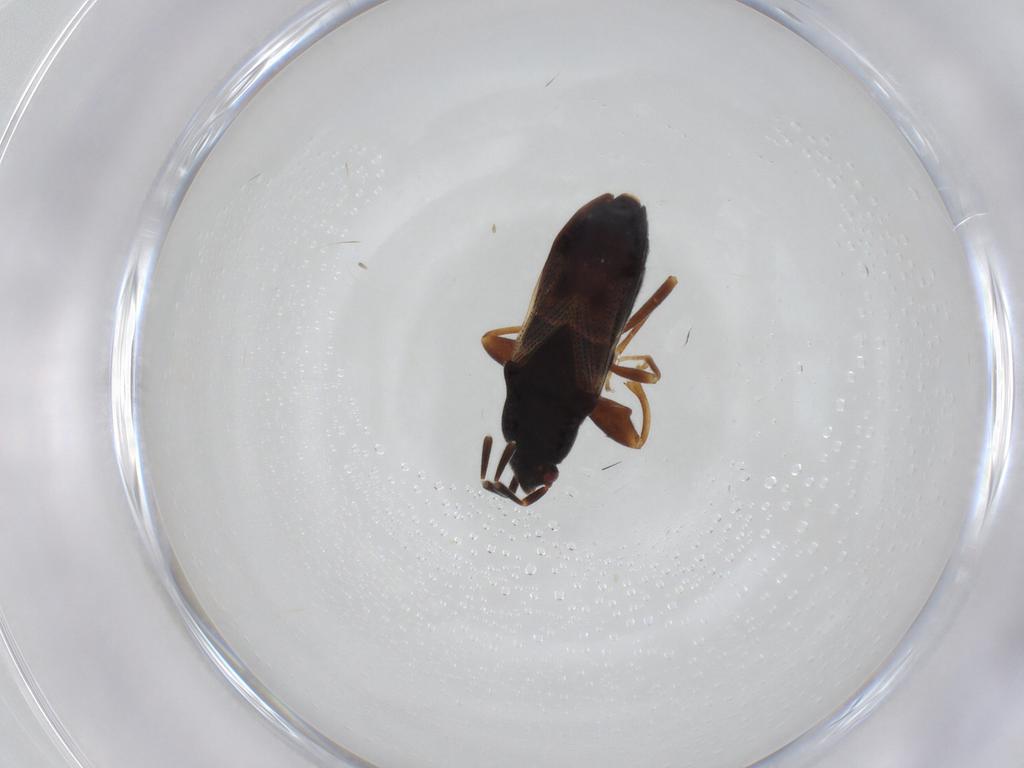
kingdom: Animalia
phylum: Arthropoda
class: Insecta
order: Hemiptera
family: Rhyparochromidae
